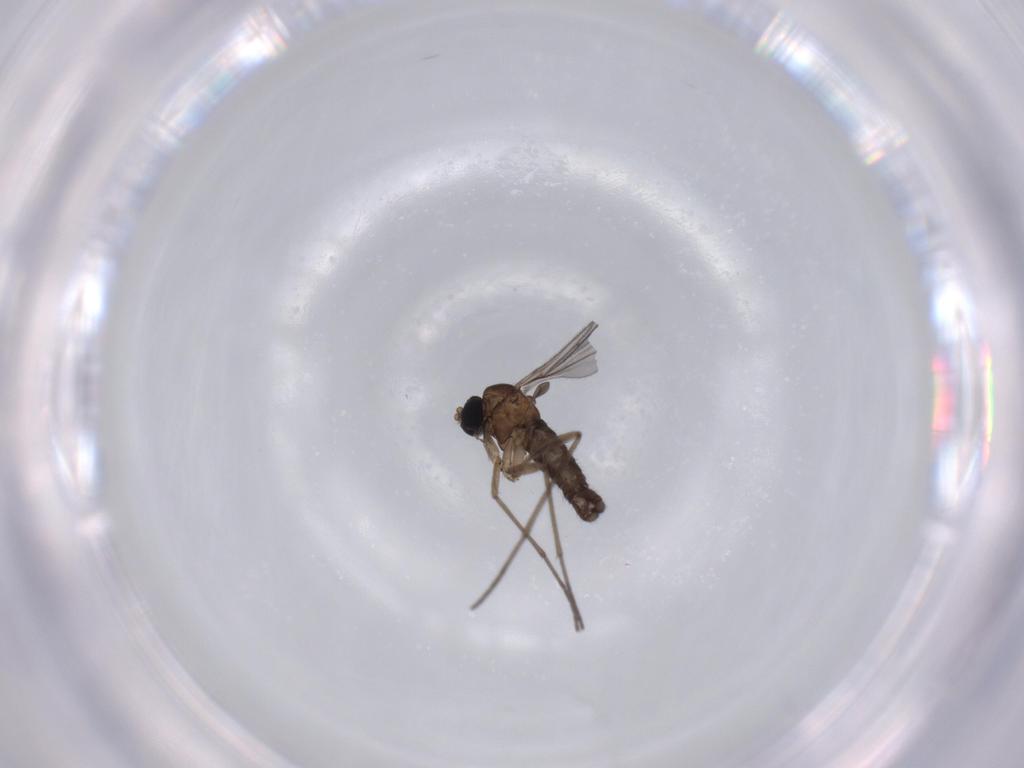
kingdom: Animalia
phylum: Arthropoda
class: Insecta
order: Diptera
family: Sciaridae
